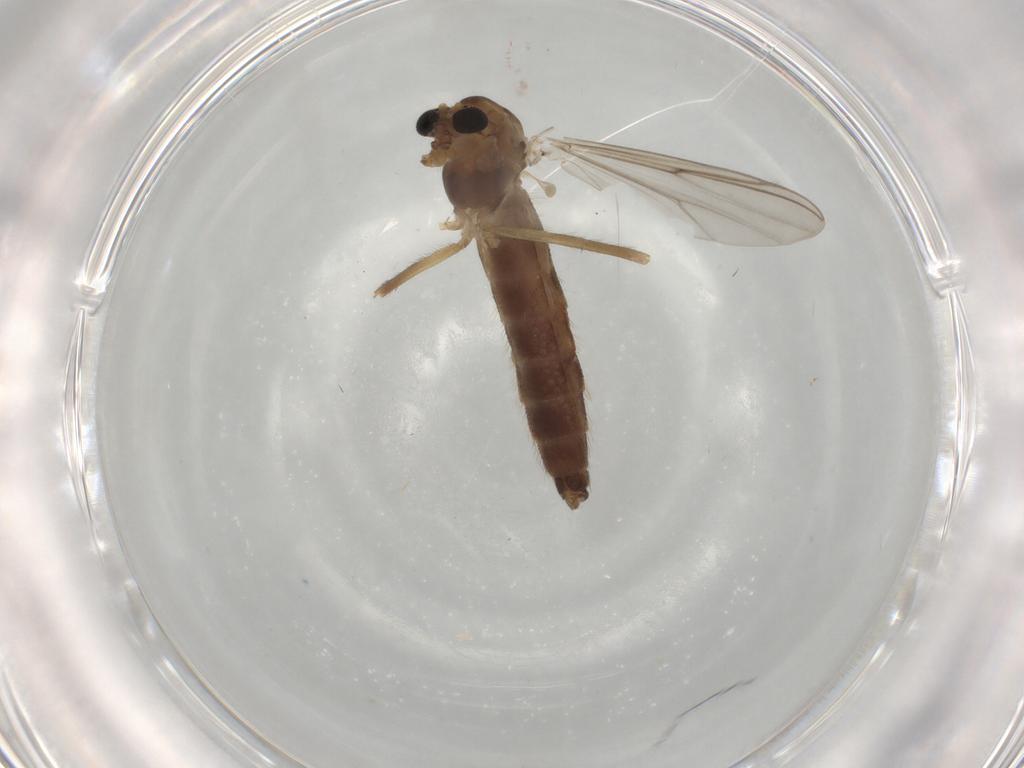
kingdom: Animalia
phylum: Arthropoda
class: Insecta
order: Diptera
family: Chironomidae
